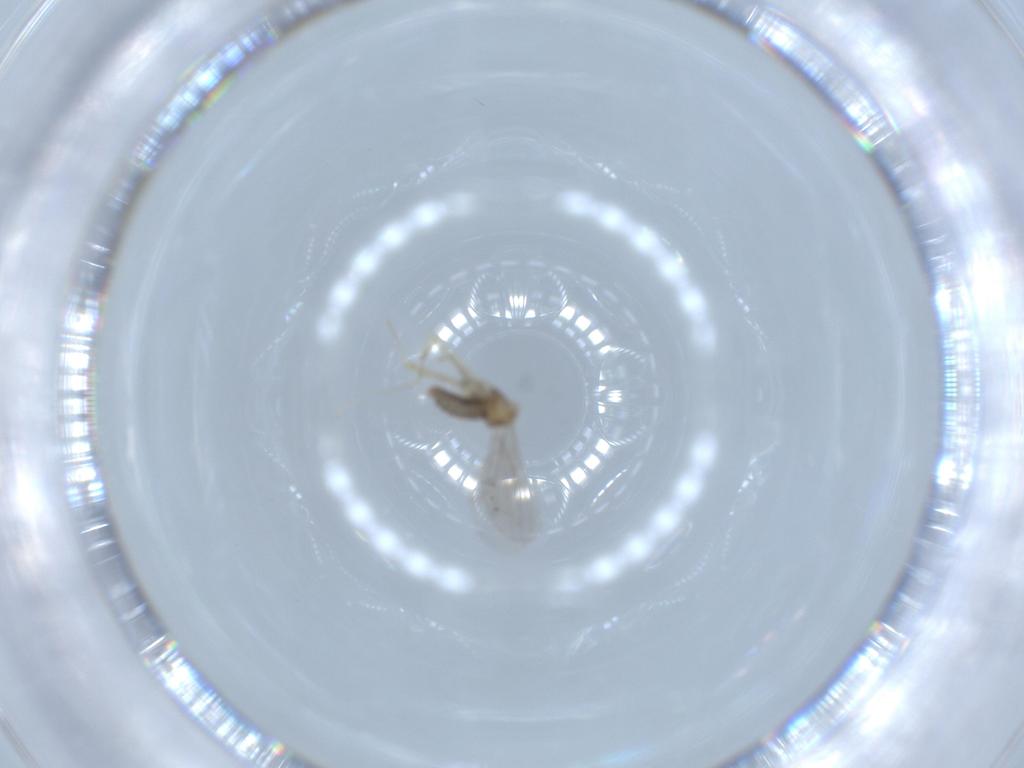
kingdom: Animalia
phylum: Arthropoda
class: Insecta
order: Diptera
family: Cecidomyiidae
